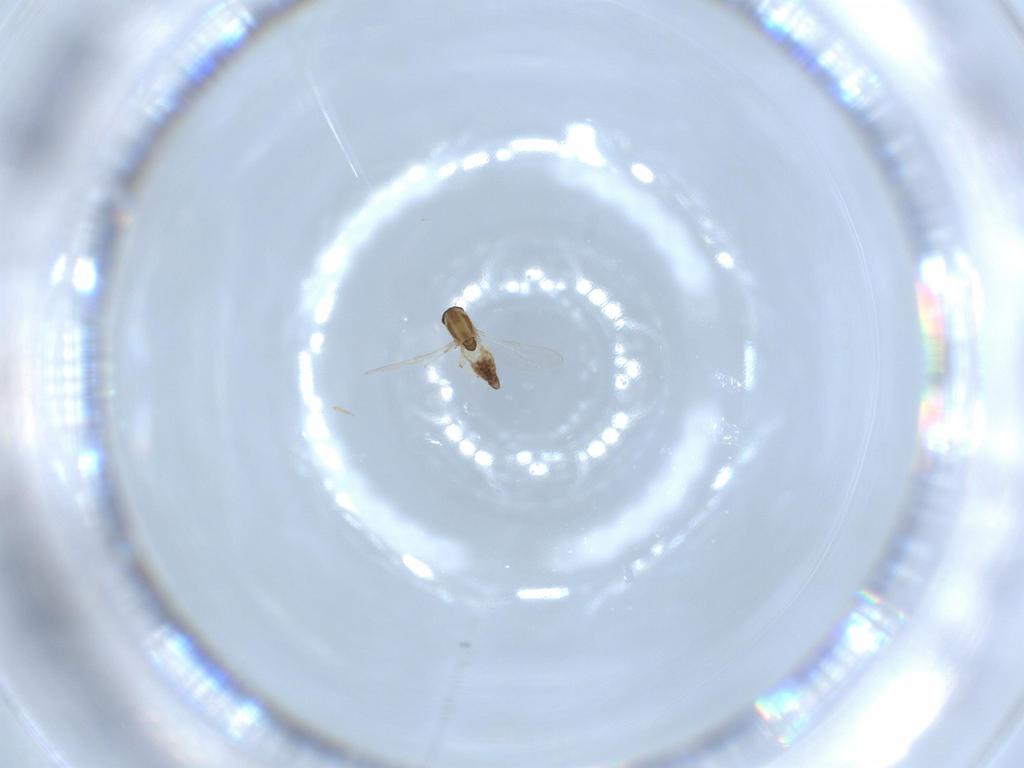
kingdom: Animalia
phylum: Arthropoda
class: Insecta
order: Diptera
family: Chironomidae
